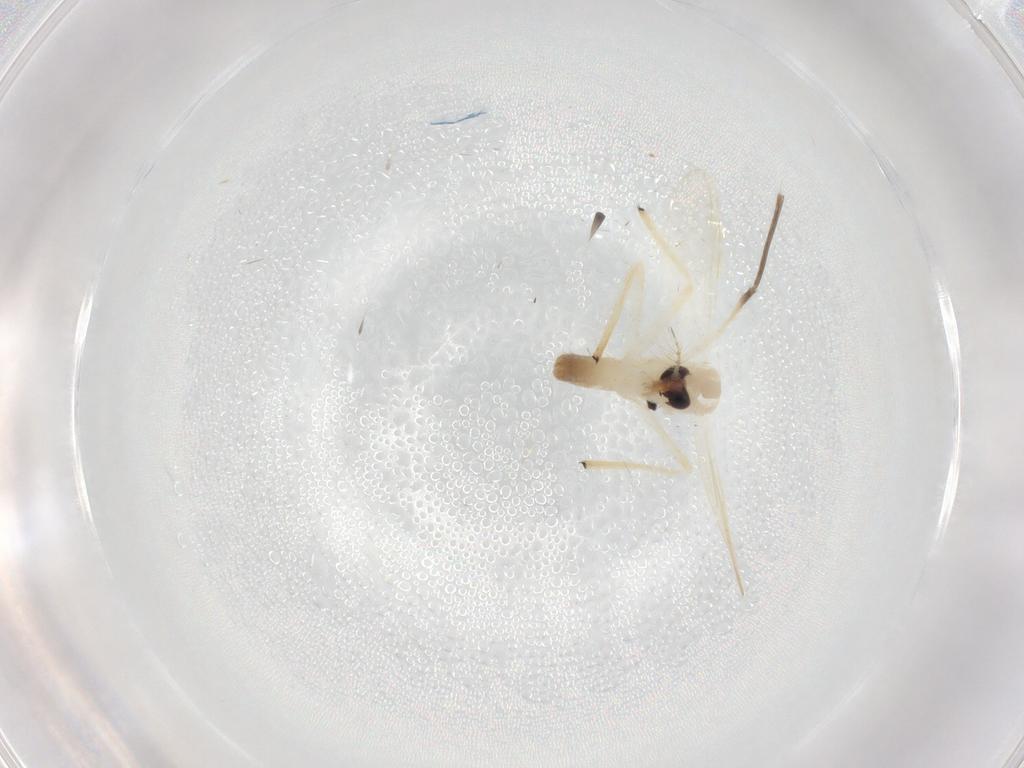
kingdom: Animalia
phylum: Arthropoda
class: Insecta
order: Diptera
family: Chironomidae
